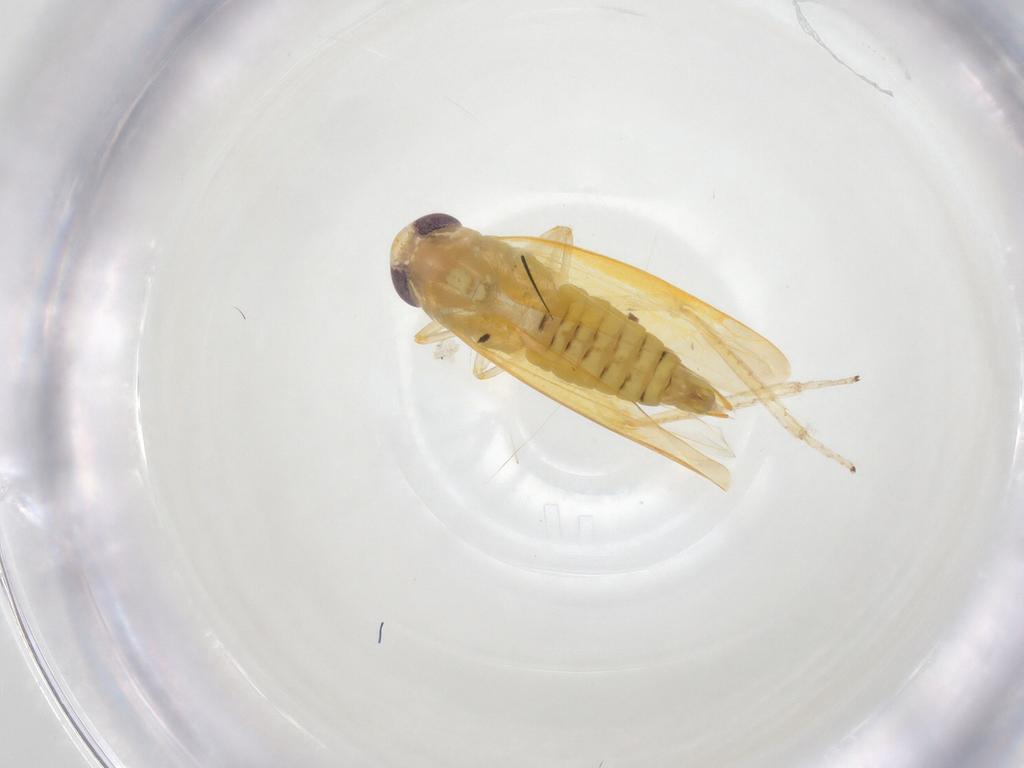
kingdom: Animalia
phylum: Arthropoda
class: Insecta
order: Hemiptera
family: Cicadellidae
